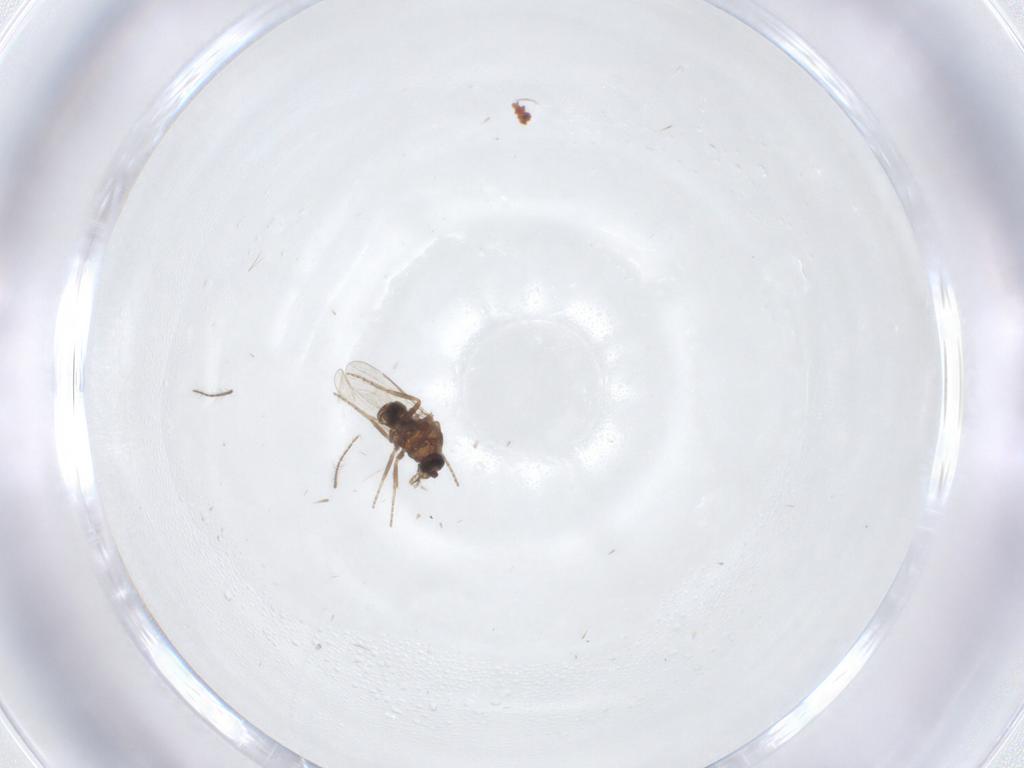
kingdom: Animalia
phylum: Arthropoda
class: Insecta
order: Diptera
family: Ceratopogonidae
